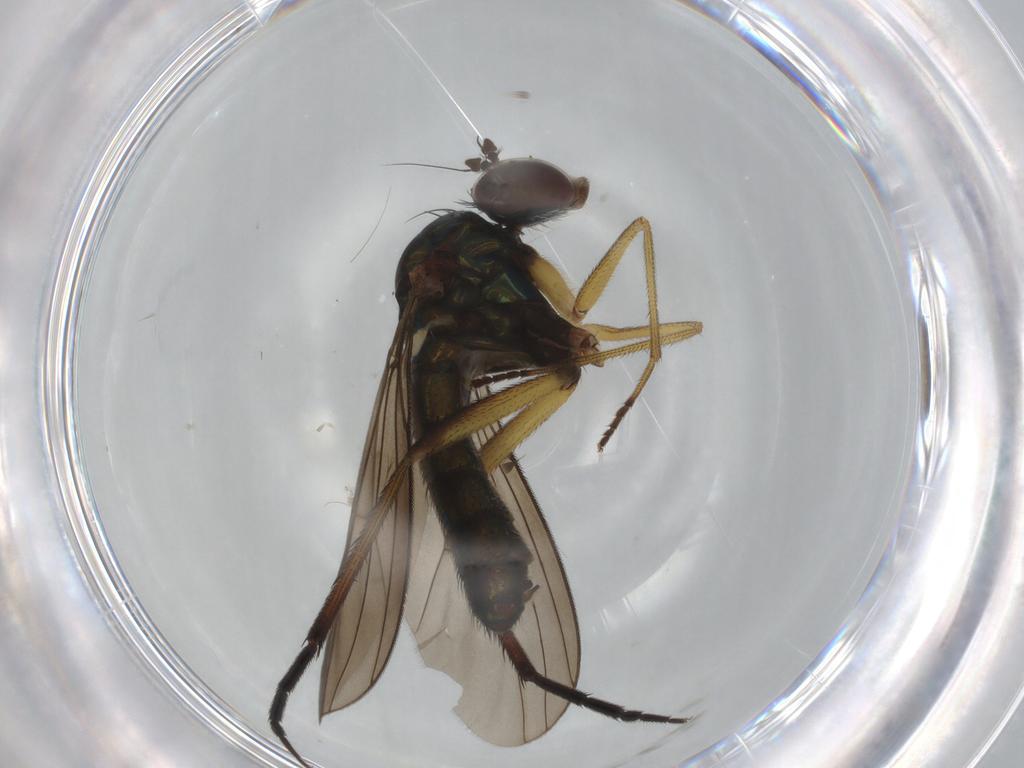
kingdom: Animalia
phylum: Arthropoda
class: Insecta
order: Diptera
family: Dolichopodidae
